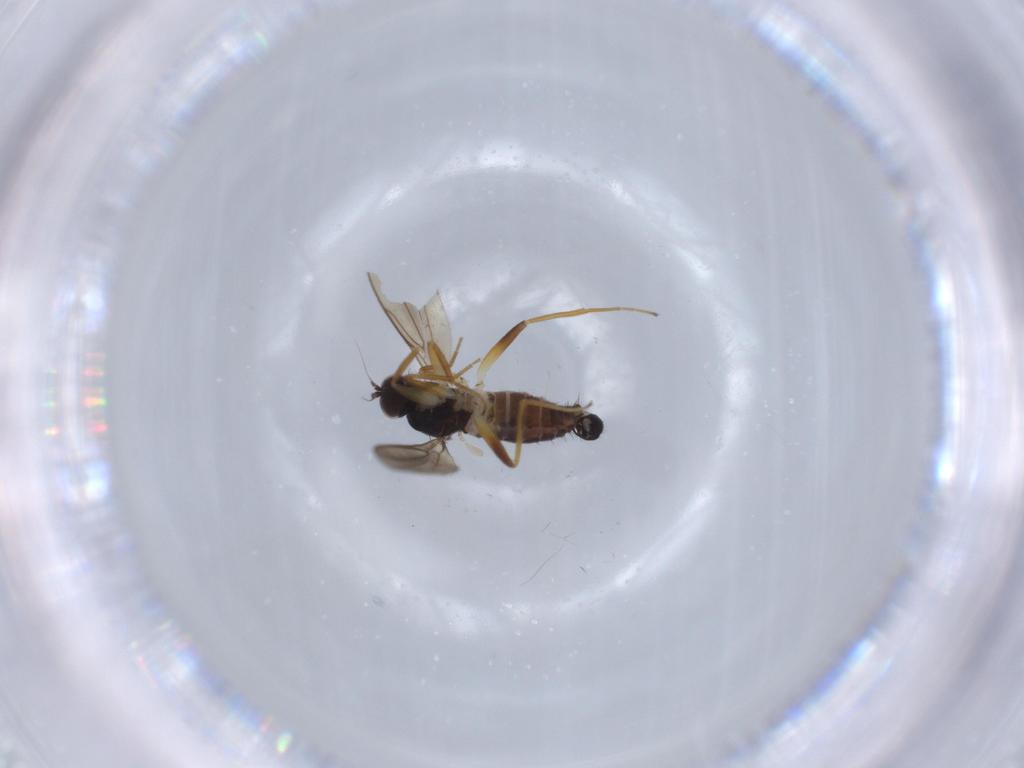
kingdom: Animalia
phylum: Arthropoda
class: Insecta
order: Diptera
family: Hybotidae
